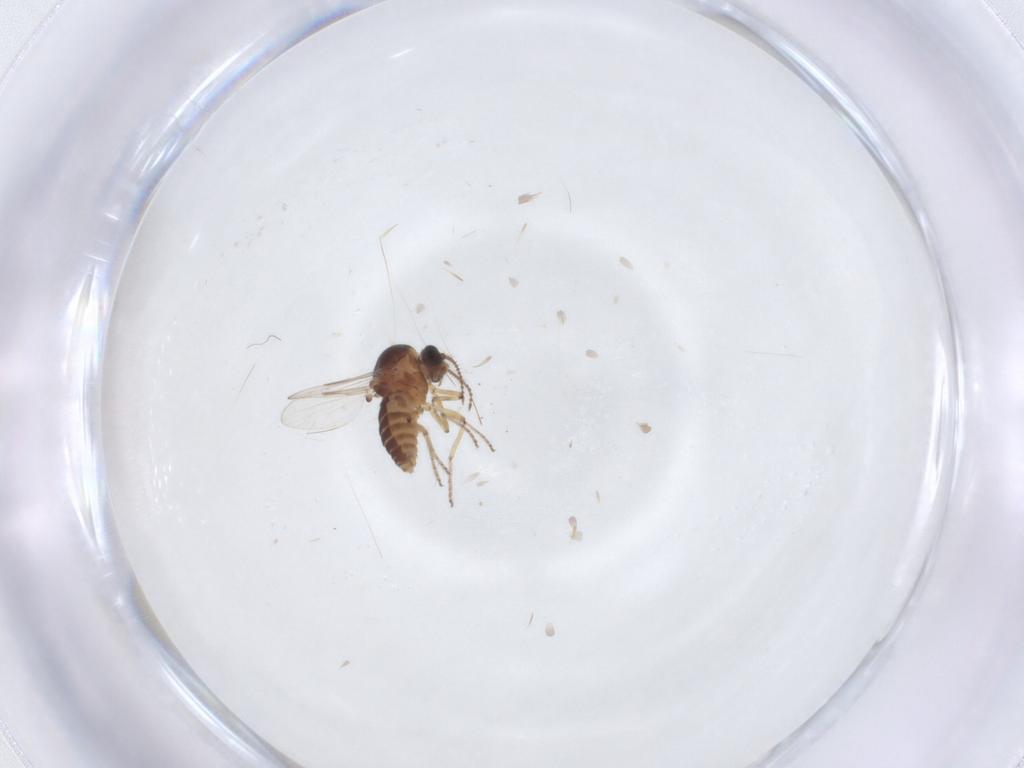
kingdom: Animalia
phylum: Arthropoda
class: Insecta
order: Diptera
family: Ceratopogonidae
